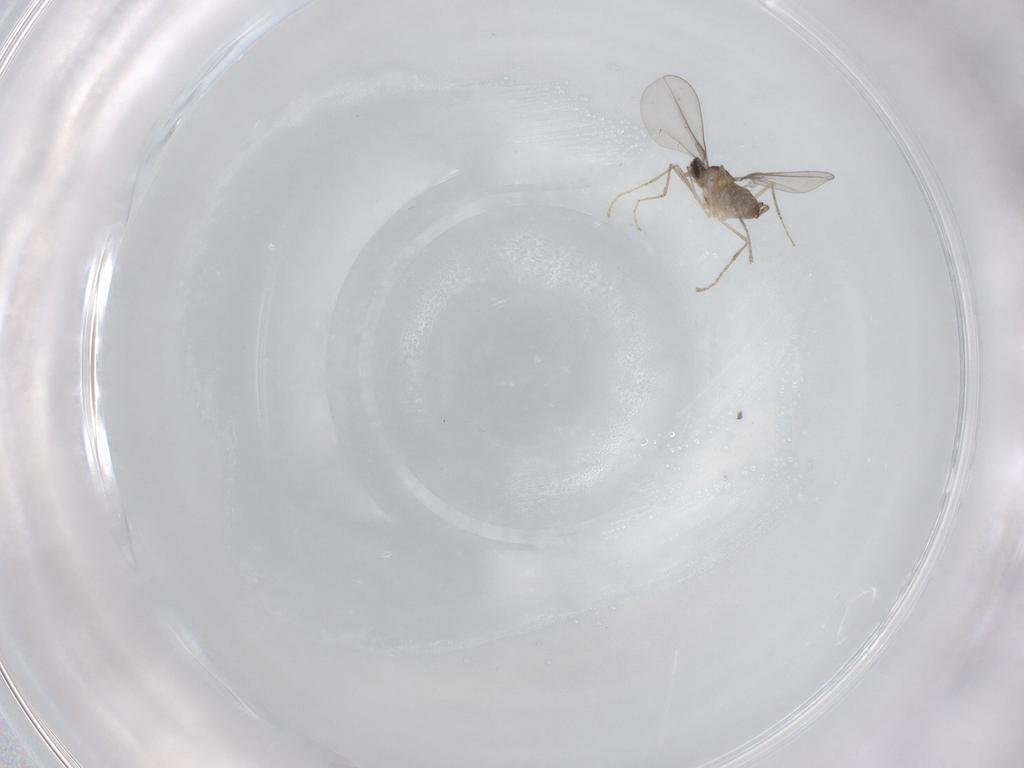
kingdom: Animalia
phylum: Arthropoda
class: Insecta
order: Diptera
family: Cecidomyiidae
